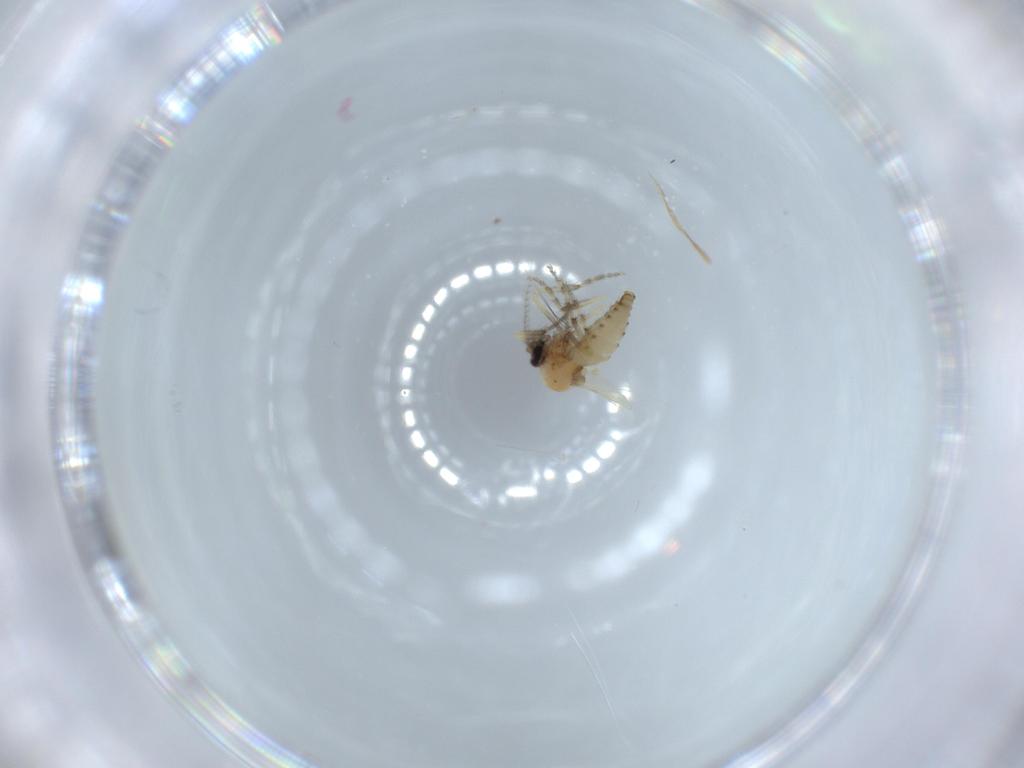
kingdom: Animalia
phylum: Arthropoda
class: Insecta
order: Diptera
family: Ceratopogonidae
